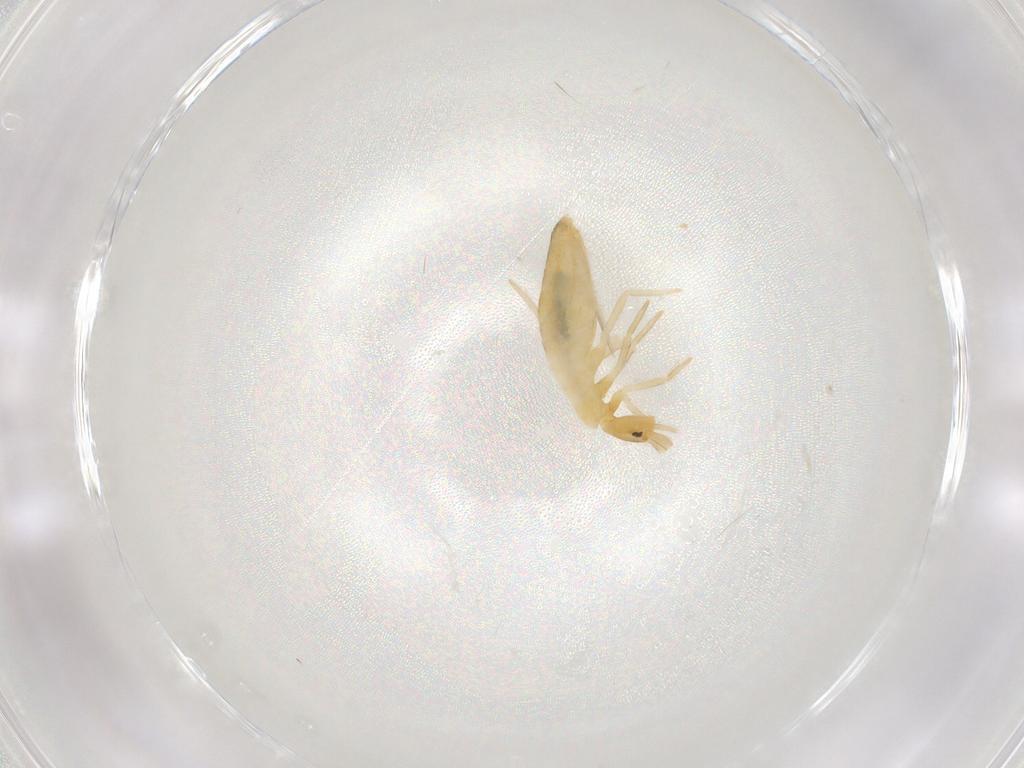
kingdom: Animalia
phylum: Arthropoda
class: Collembola
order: Entomobryomorpha
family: Entomobryidae
